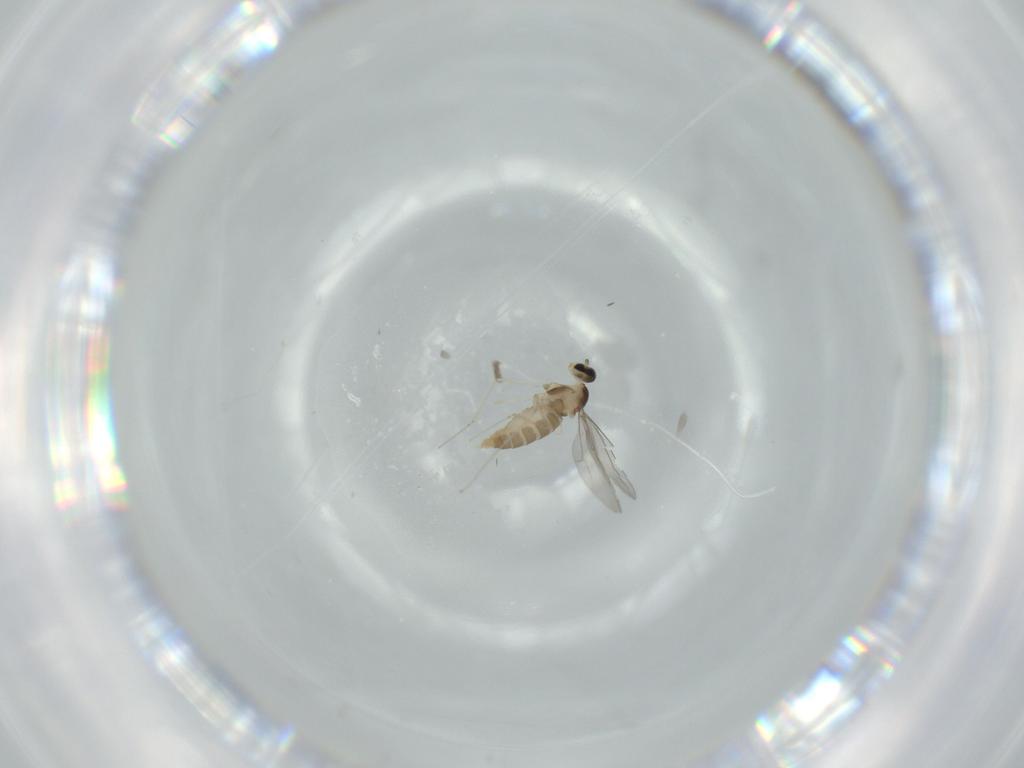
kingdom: Animalia
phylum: Arthropoda
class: Insecta
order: Diptera
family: Cecidomyiidae
